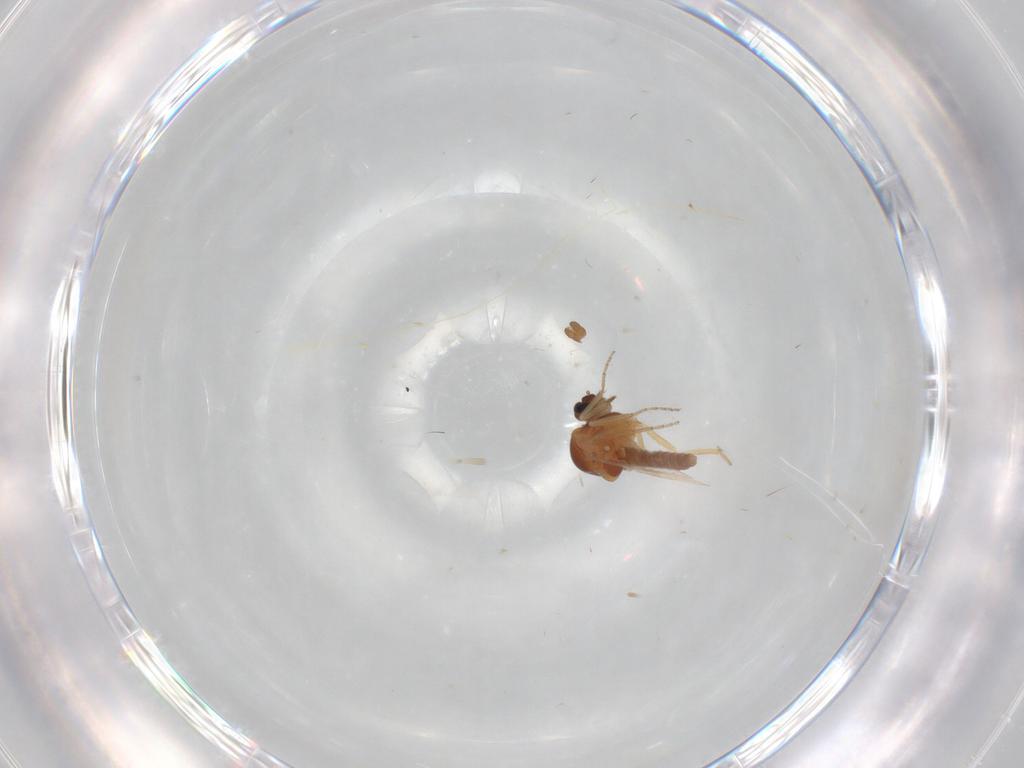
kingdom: Animalia
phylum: Arthropoda
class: Insecta
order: Diptera
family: Ceratopogonidae
